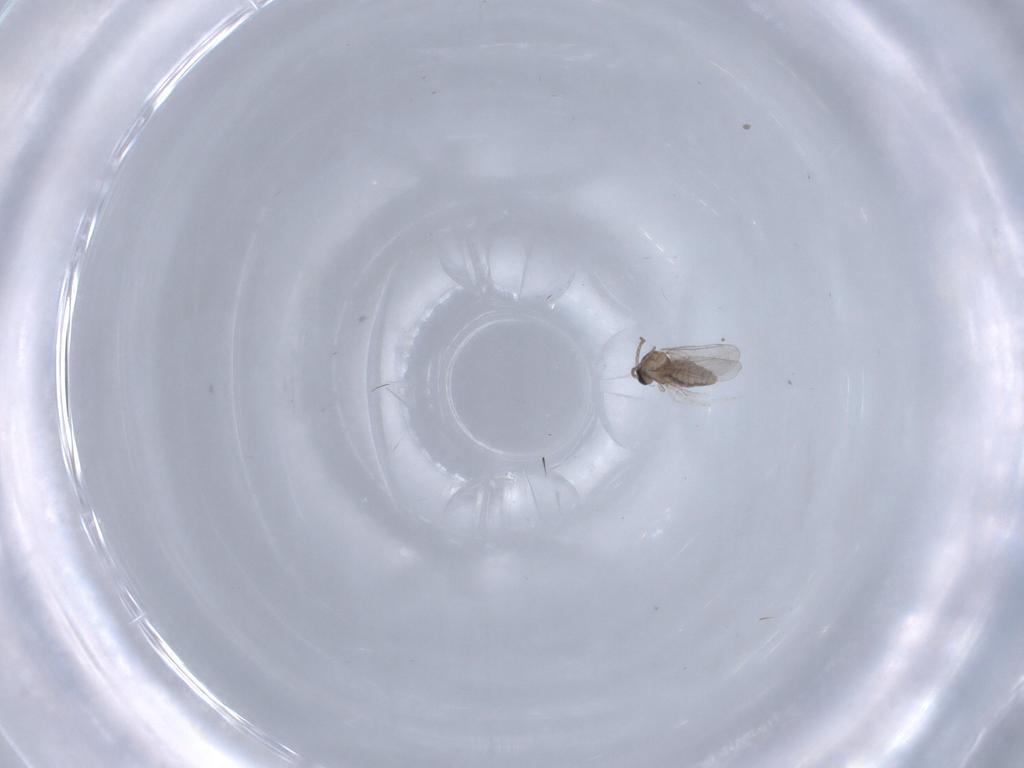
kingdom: Animalia
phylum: Arthropoda
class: Insecta
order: Diptera
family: Cecidomyiidae
